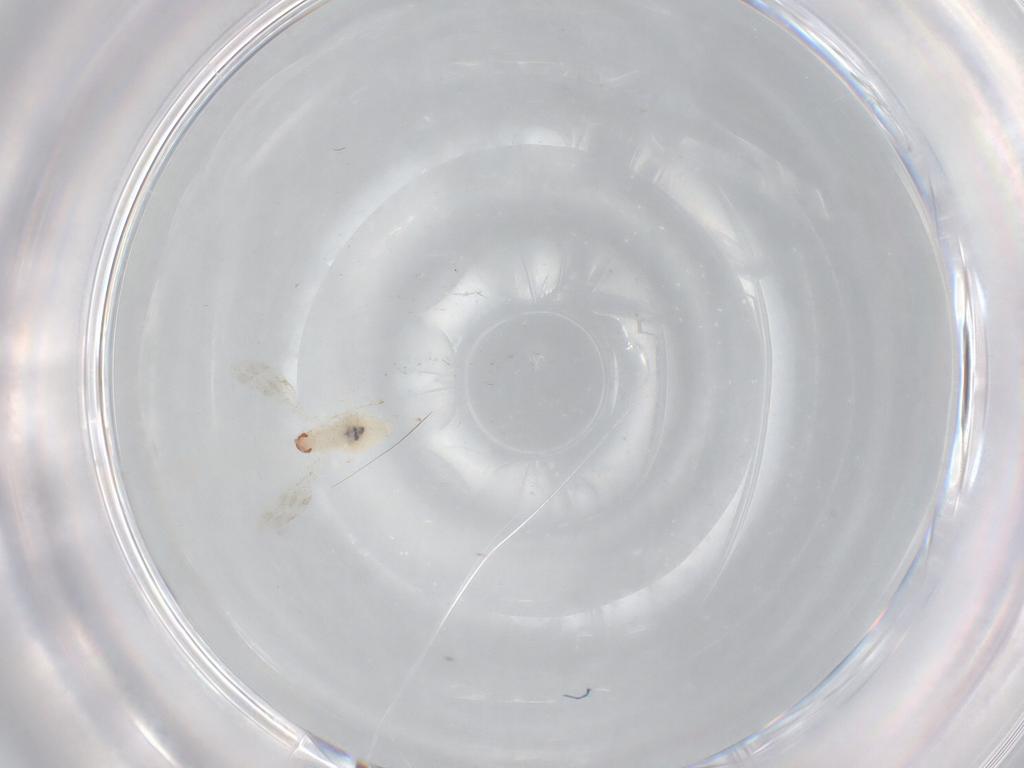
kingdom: Animalia
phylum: Arthropoda
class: Insecta
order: Diptera
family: Cecidomyiidae
